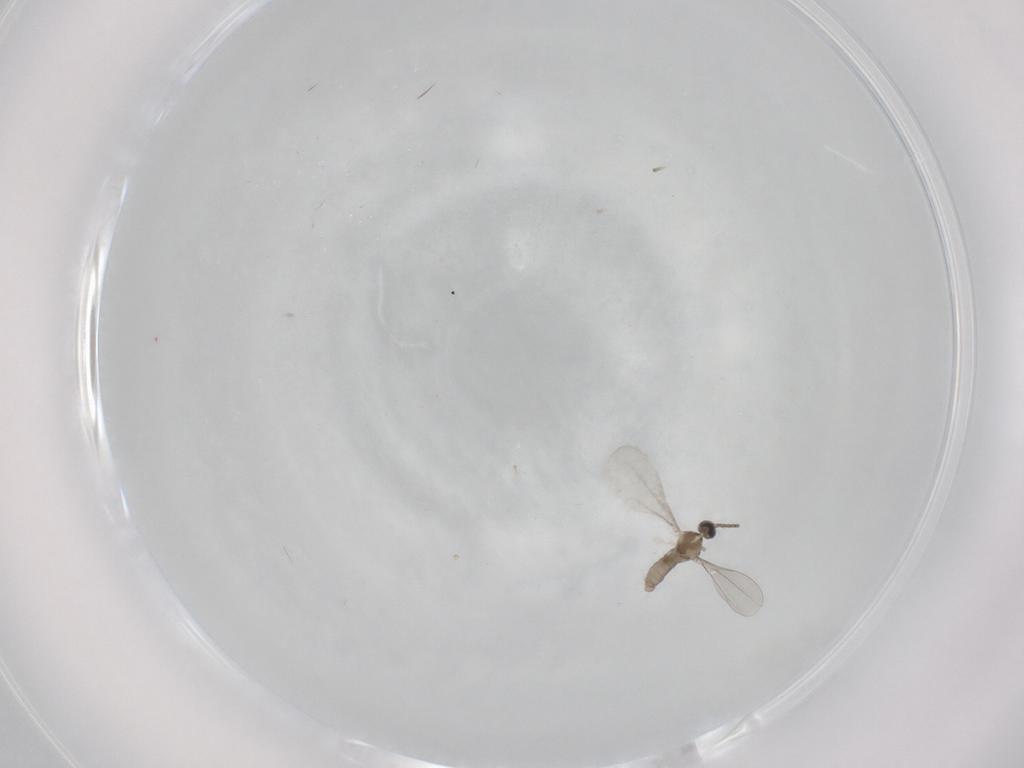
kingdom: Animalia
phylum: Arthropoda
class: Insecta
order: Diptera
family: Cecidomyiidae
